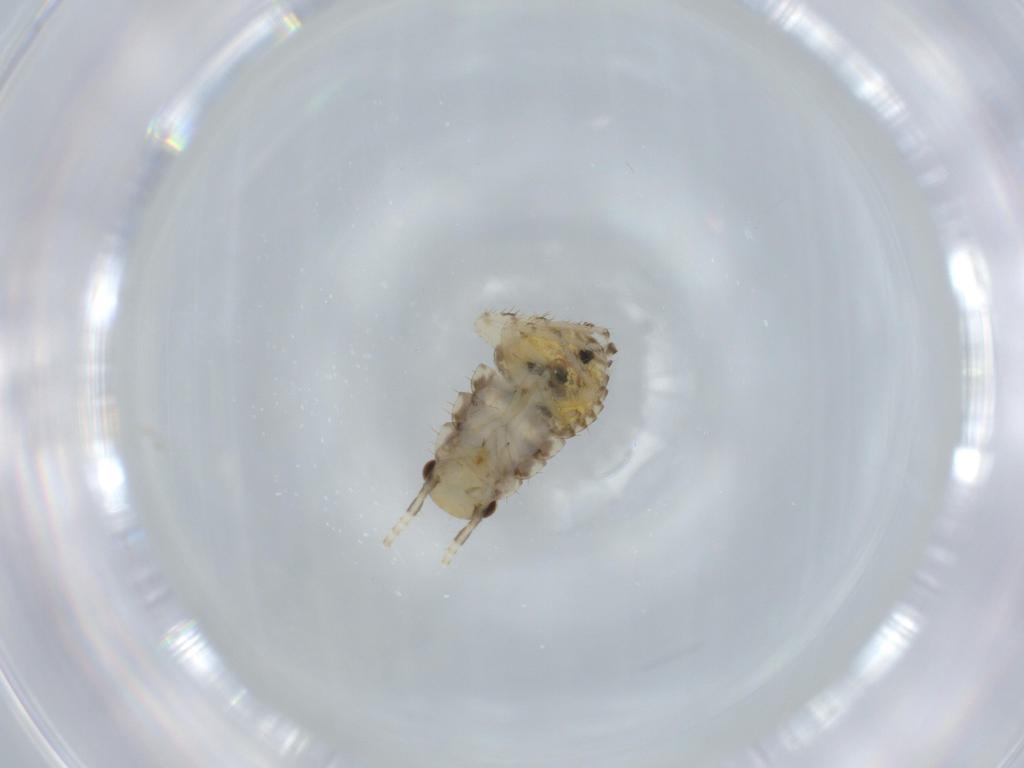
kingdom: Animalia
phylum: Arthropoda
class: Insecta
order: Blattodea
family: Ectobiidae
